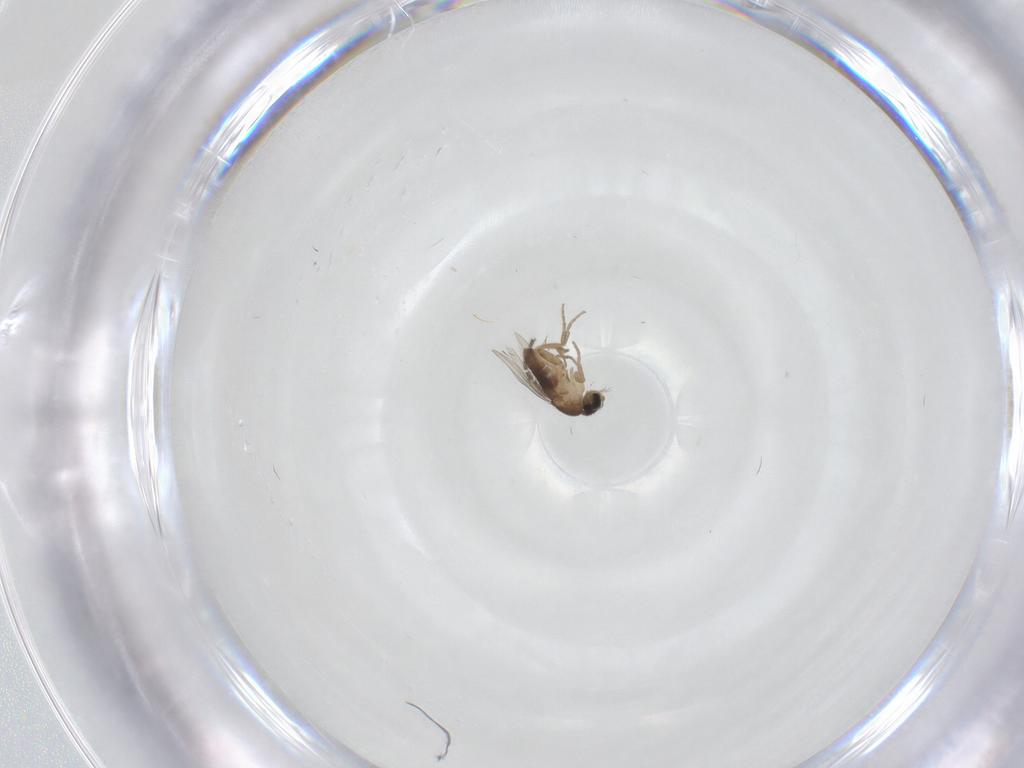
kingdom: Animalia
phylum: Arthropoda
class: Insecta
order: Diptera
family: Sciaridae
